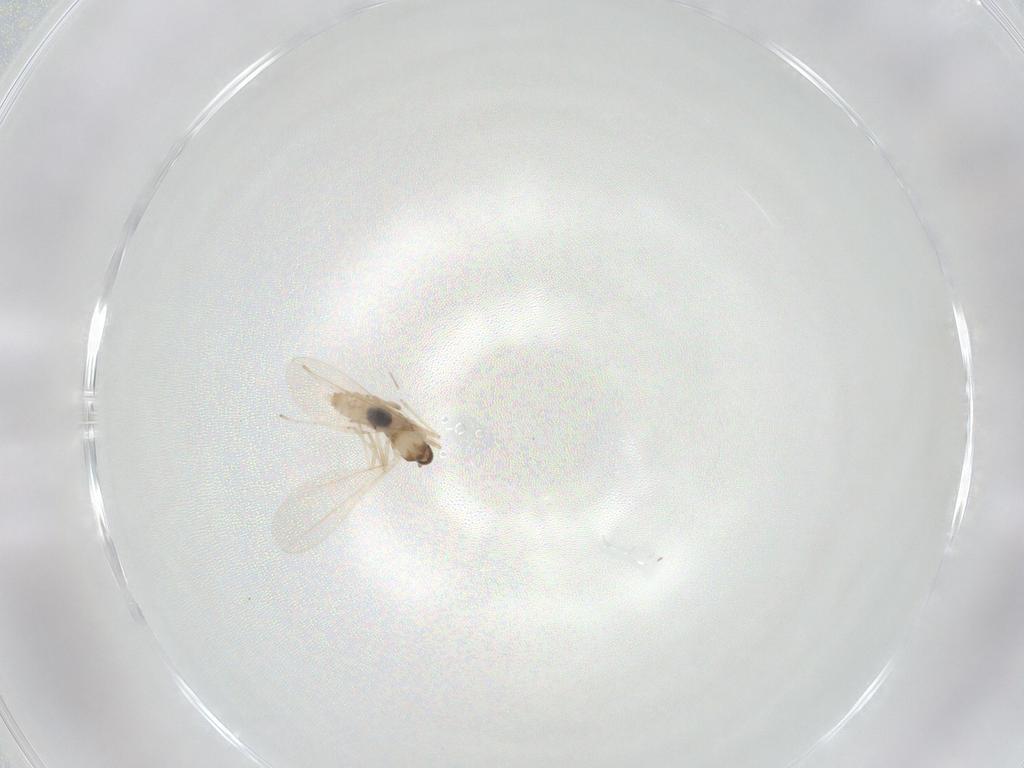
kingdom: Animalia
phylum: Arthropoda
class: Insecta
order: Diptera
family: Cecidomyiidae
